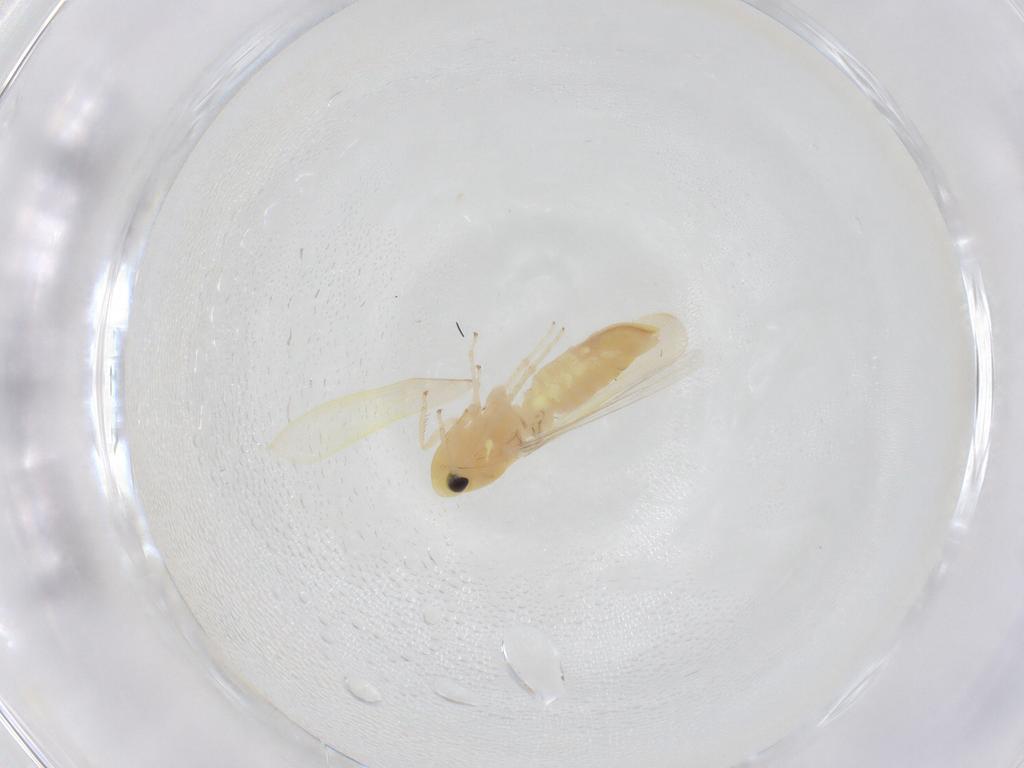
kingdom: Animalia
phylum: Arthropoda
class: Insecta
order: Hemiptera
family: Cicadellidae
